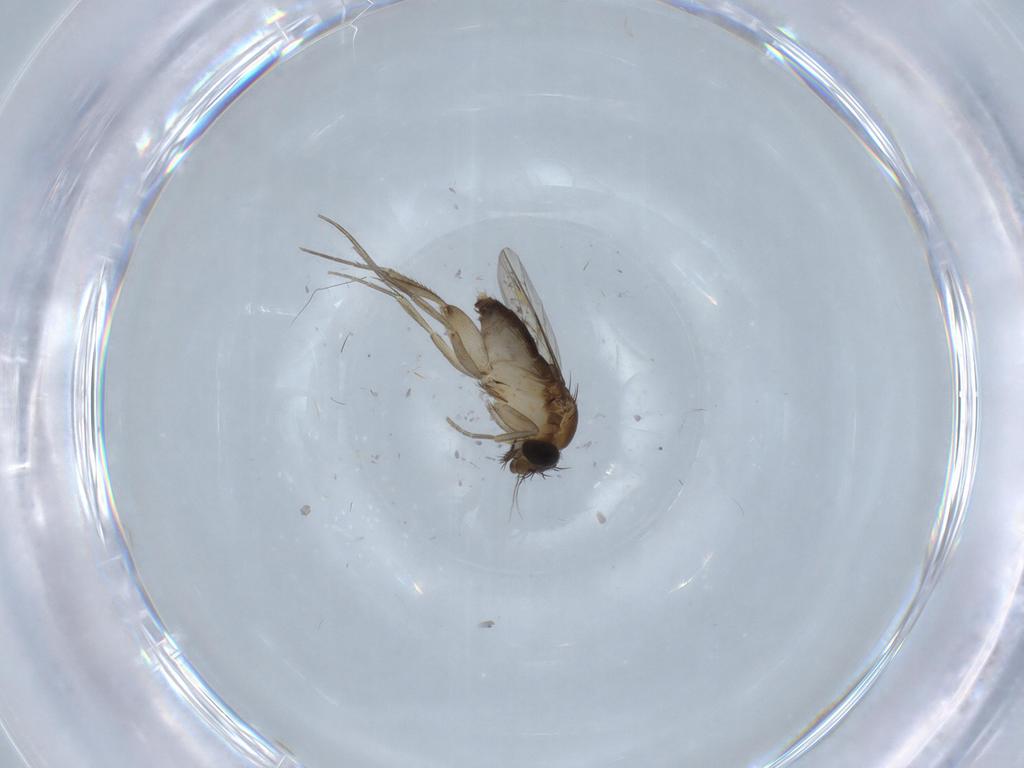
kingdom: Animalia
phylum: Arthropoda
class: Insecta
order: Diptera
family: Phoridae
